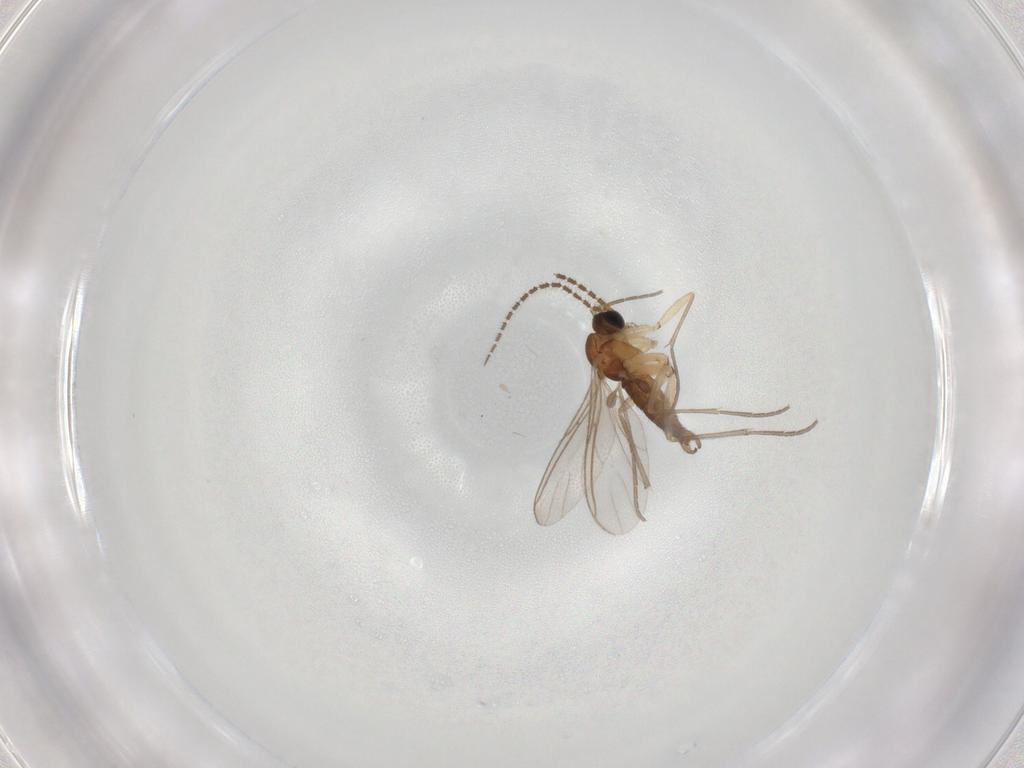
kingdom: Animalia
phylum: Arthropoda
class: Insecta
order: Diptera
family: Sciaridae
